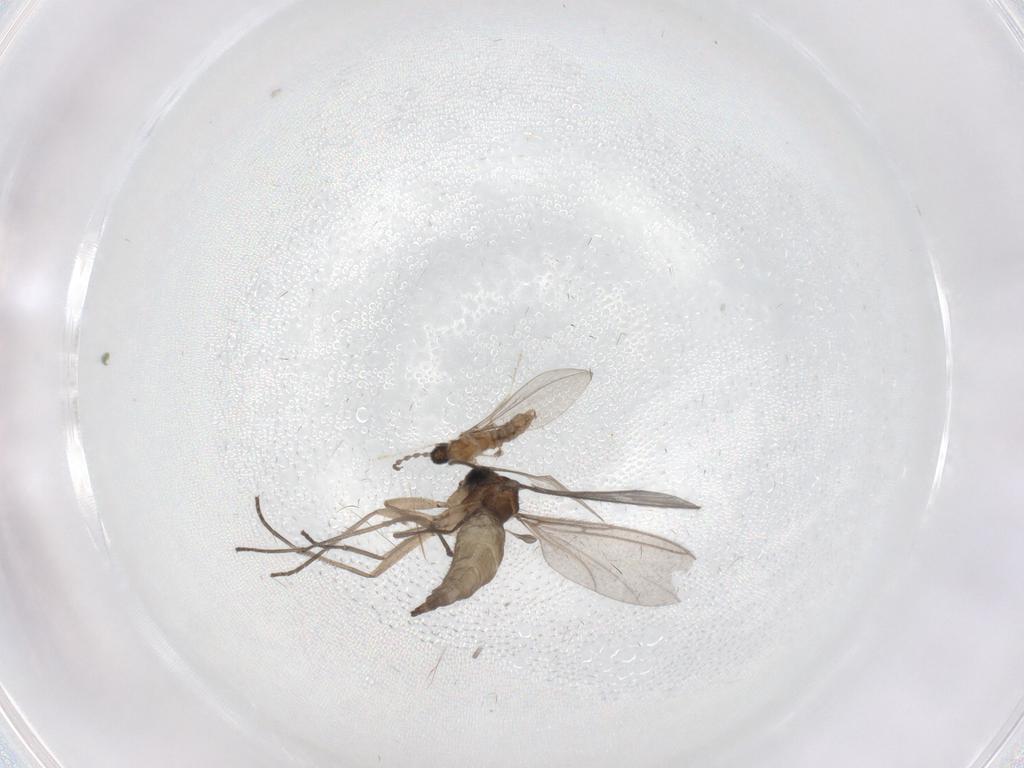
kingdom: Animalia
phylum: Arthropoda
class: Insecta
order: Diptera
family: Cecidomyiidae
